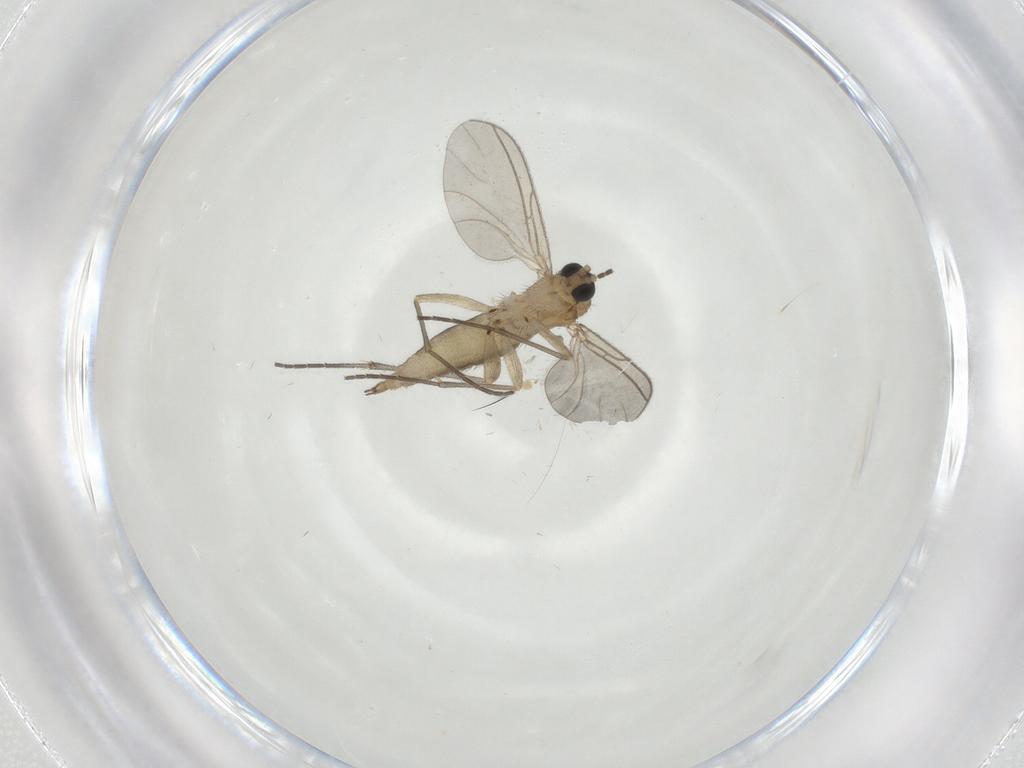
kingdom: Animalia
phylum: Arthropoda
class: Insecta
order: Diptera
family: Sciaridae
